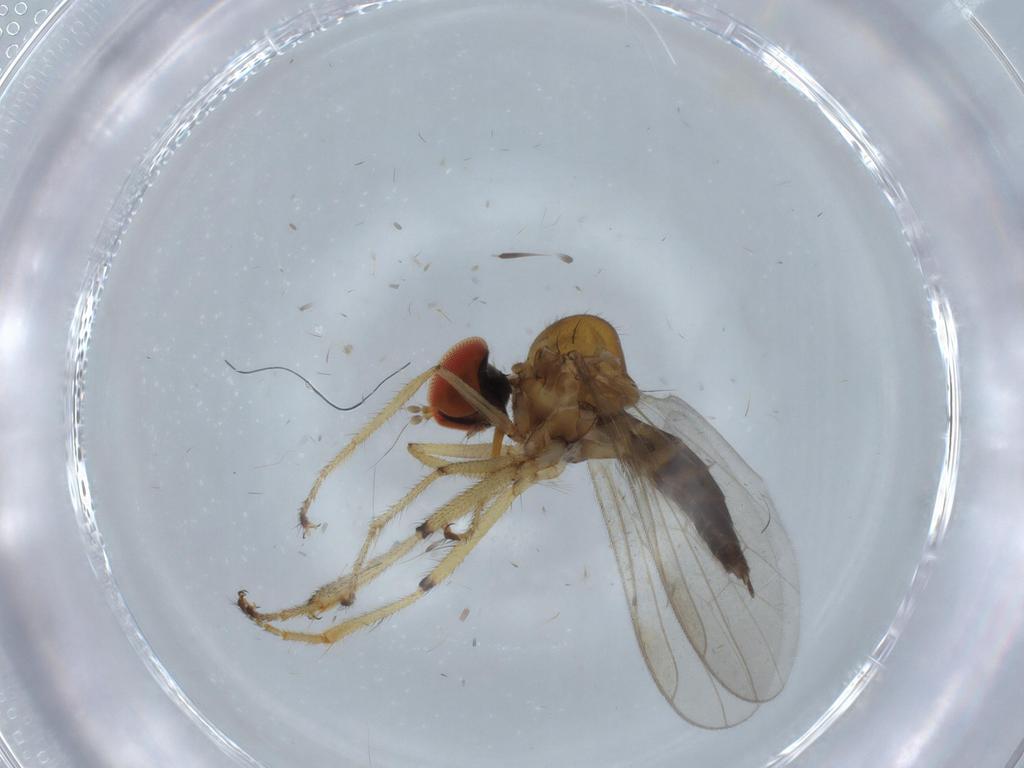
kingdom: Animalia
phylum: Arthropoda
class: Insecta
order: Diptera
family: Hybotidae
